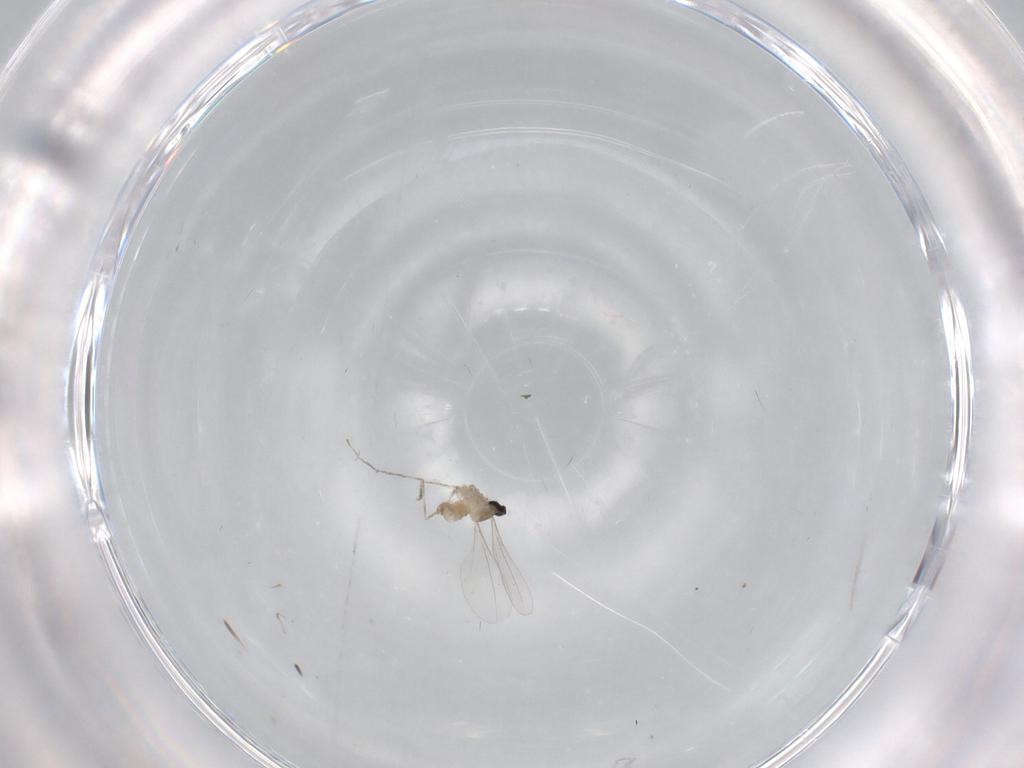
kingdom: Animalia
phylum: Arthropoda
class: Insecta
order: Diptera
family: Cecidomyiidae
